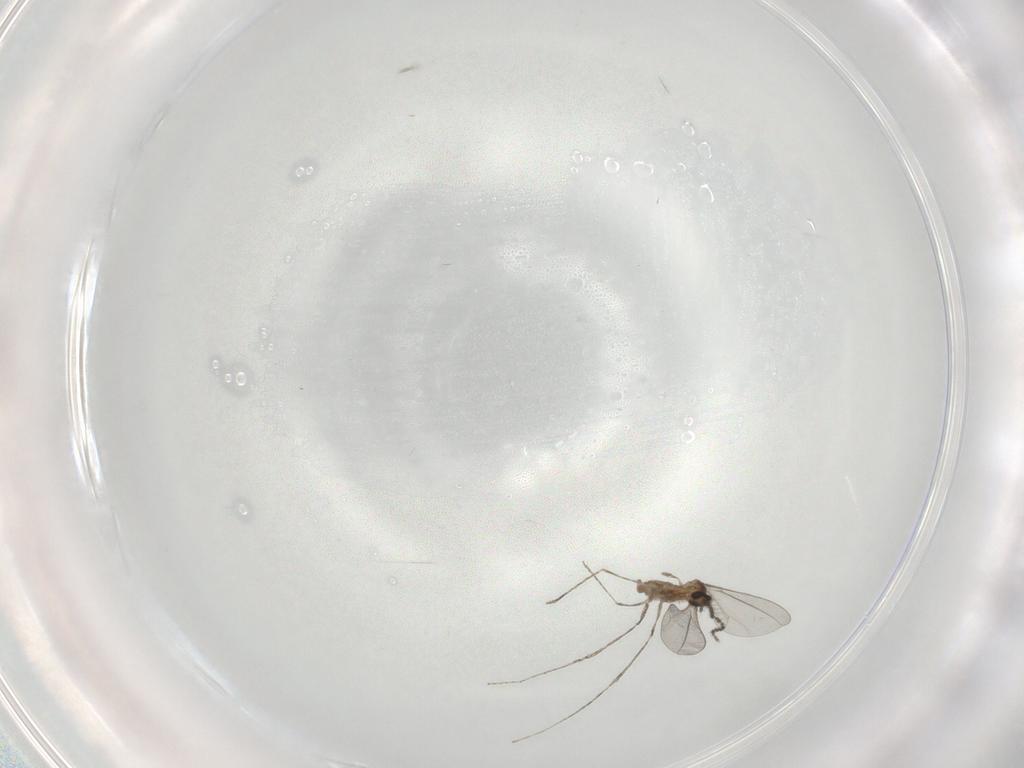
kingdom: Animalia
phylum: Arthropoda
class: Insecta
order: Diptera
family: Cecidomyiidae
